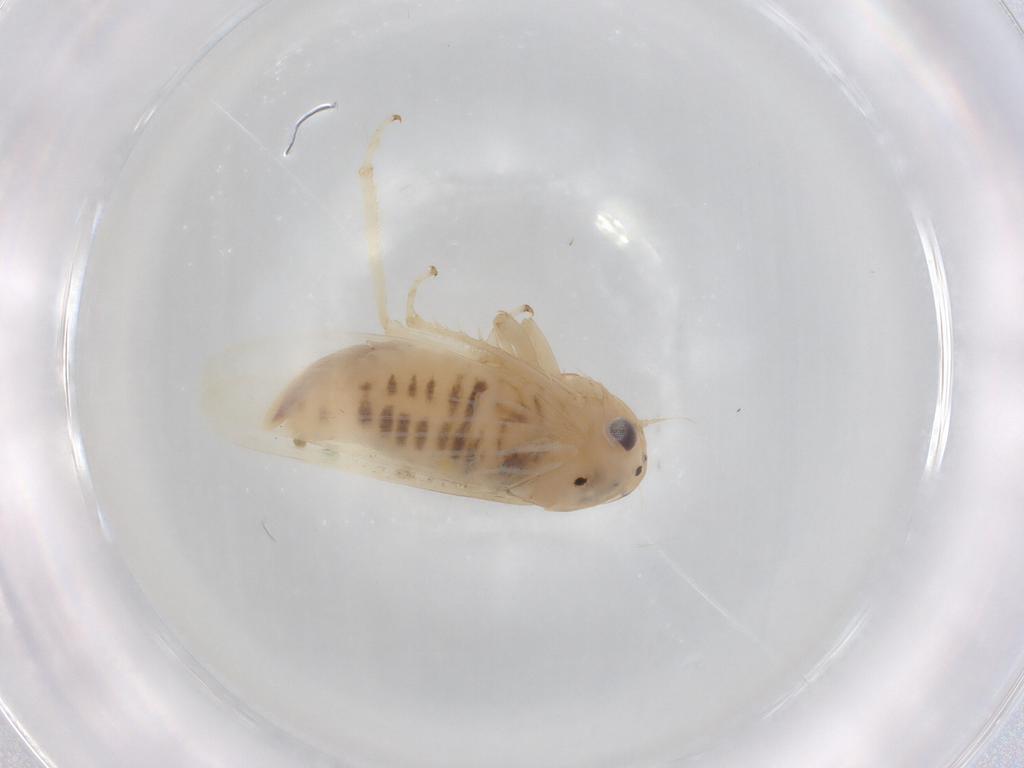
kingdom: Animalia
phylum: Arthropoda
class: Insecta
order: Hemiptera
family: Cicadellidae
